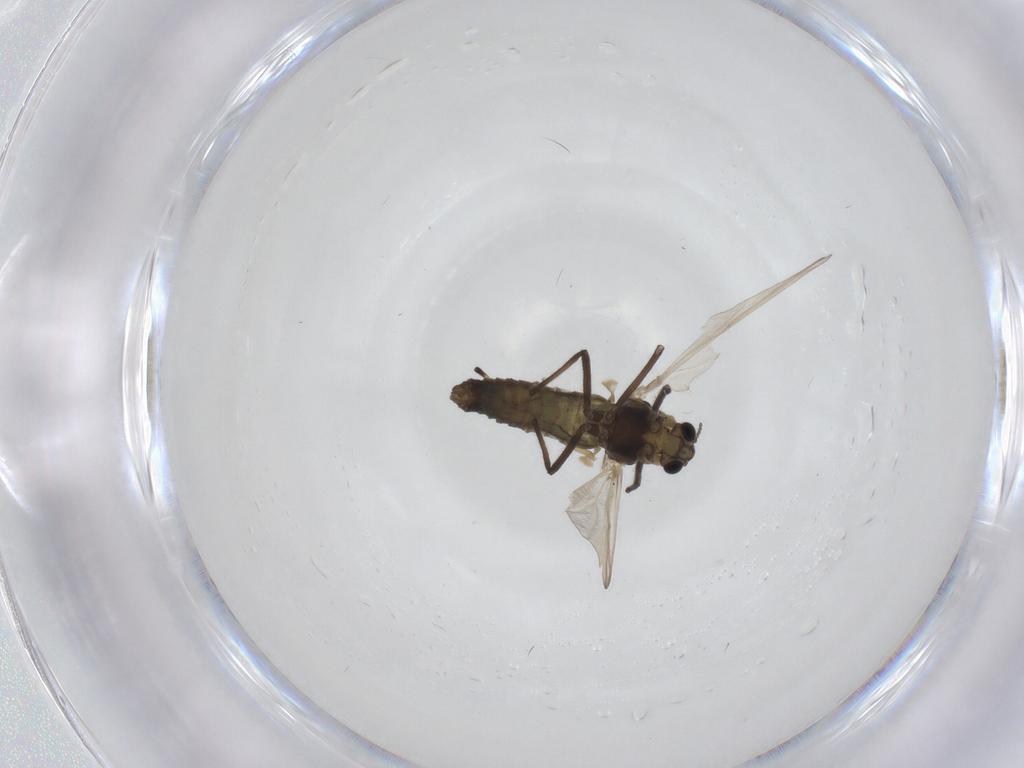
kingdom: Animalia
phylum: Arthropoda
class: Insecta
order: Diptera
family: Chironomidae
